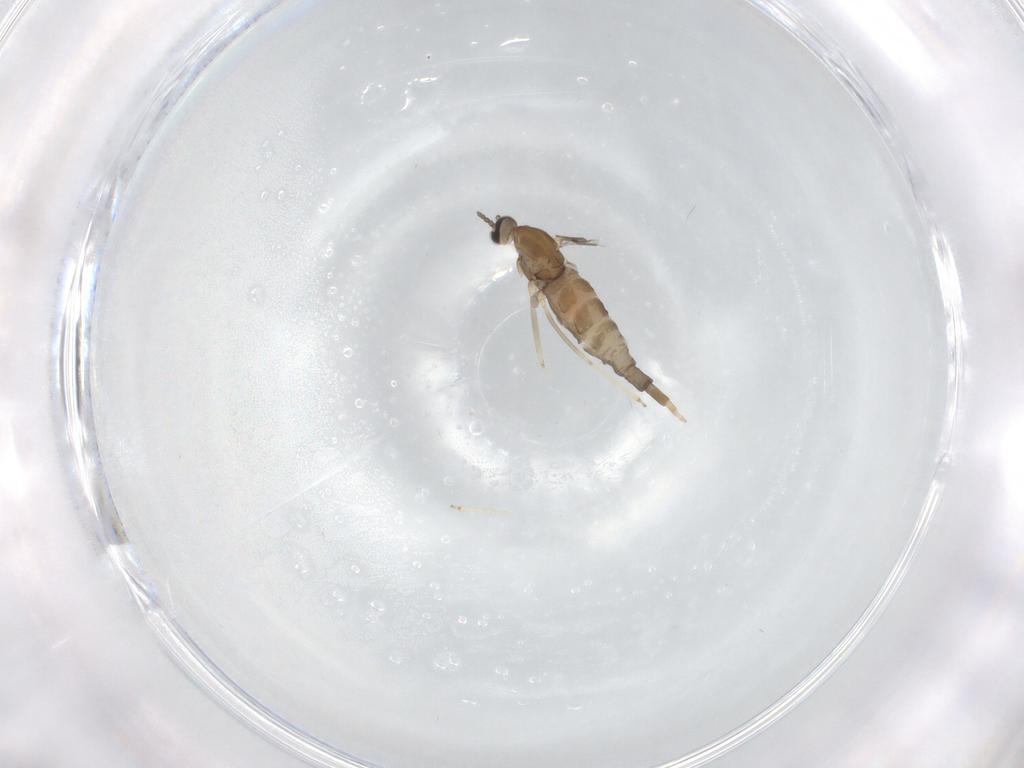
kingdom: Animalia
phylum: Arthropoda
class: Insecta
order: Diptera
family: Cecidomyiidae
